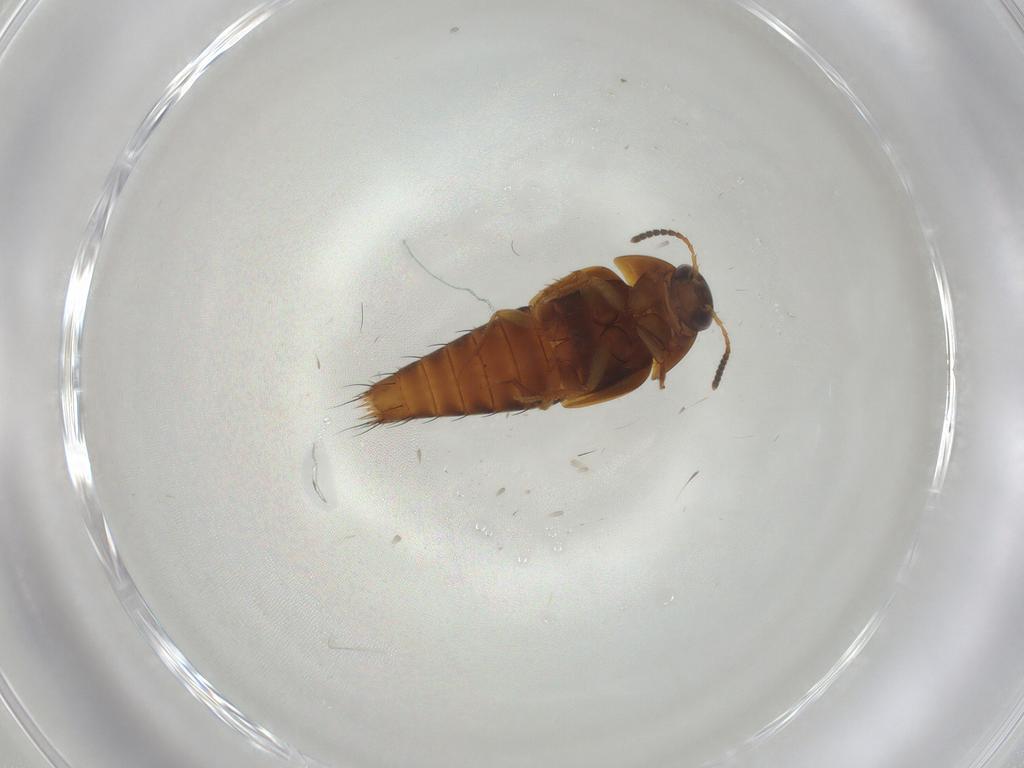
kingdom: Animalia
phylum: Arthropoda
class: Insecta
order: Coleoptera
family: Staphylinidae
